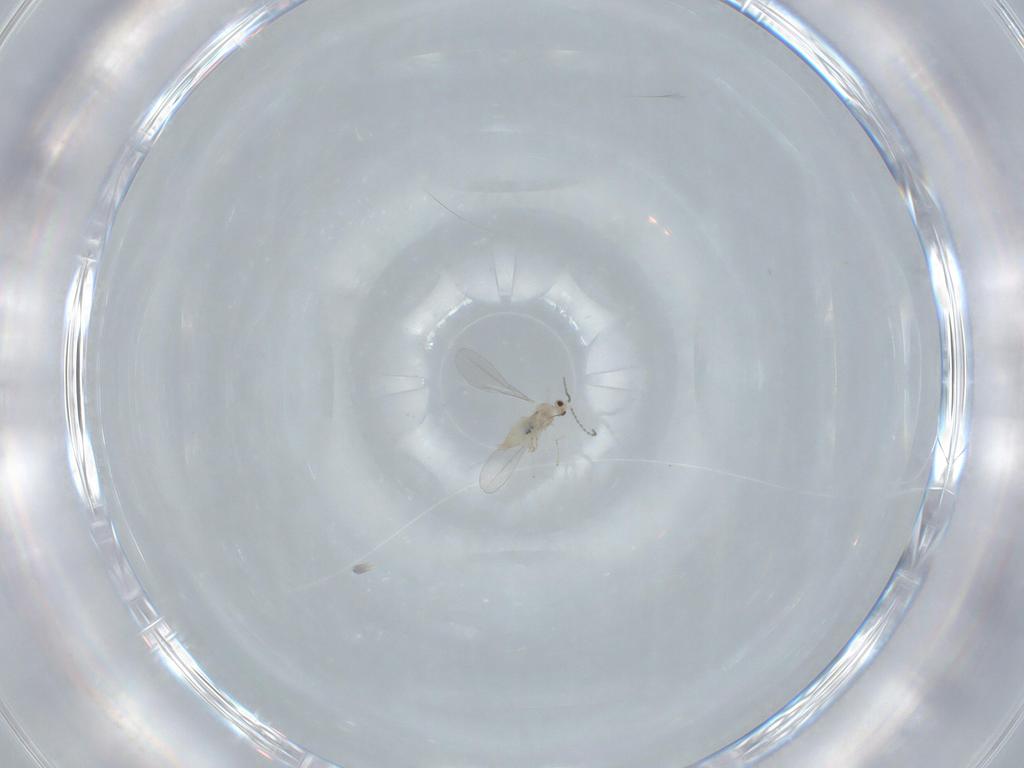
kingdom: Animalia
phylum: Arthropoda
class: Insecta
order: Diptera
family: Cecidomyiidae
